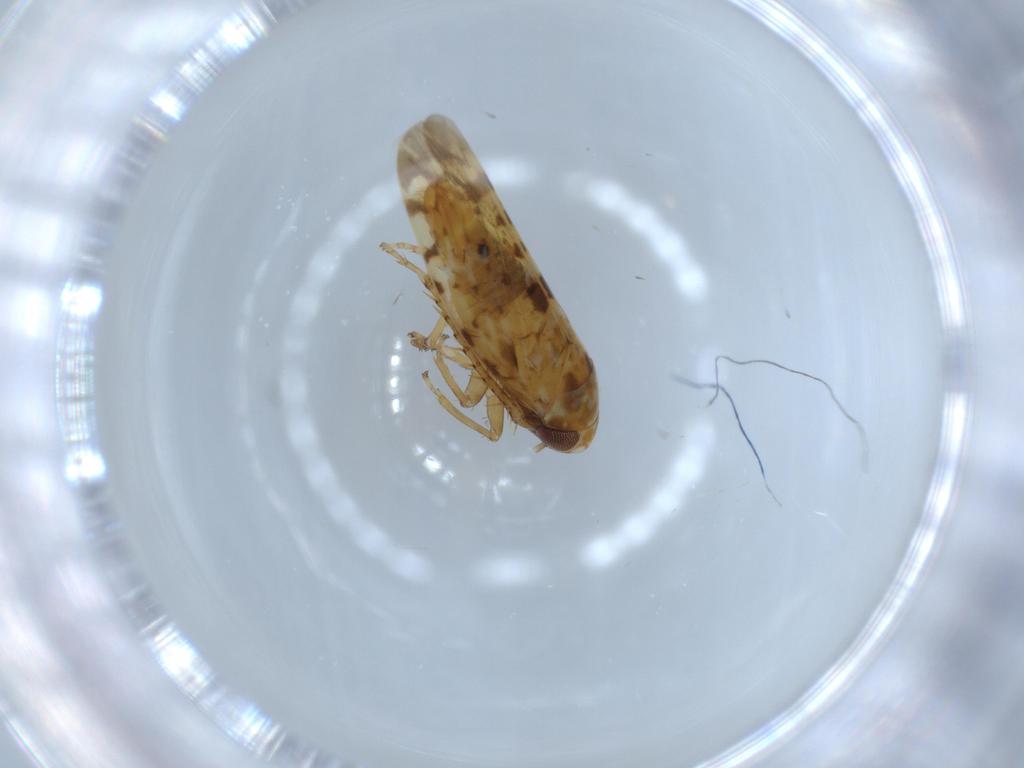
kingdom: Animalia
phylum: Arthropoda
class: Insecta
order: Hemiptera
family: Cicadellidae
